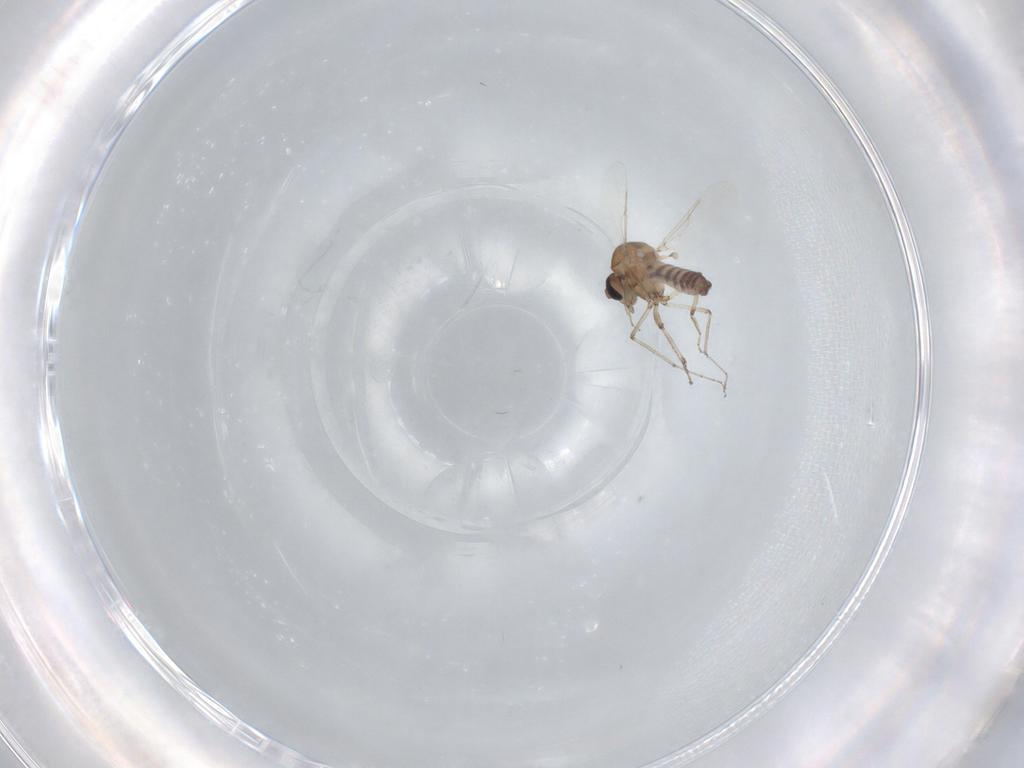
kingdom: Animalia
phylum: Arthropoda
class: Insecta
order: Diptera
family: Ceratopogonidae
